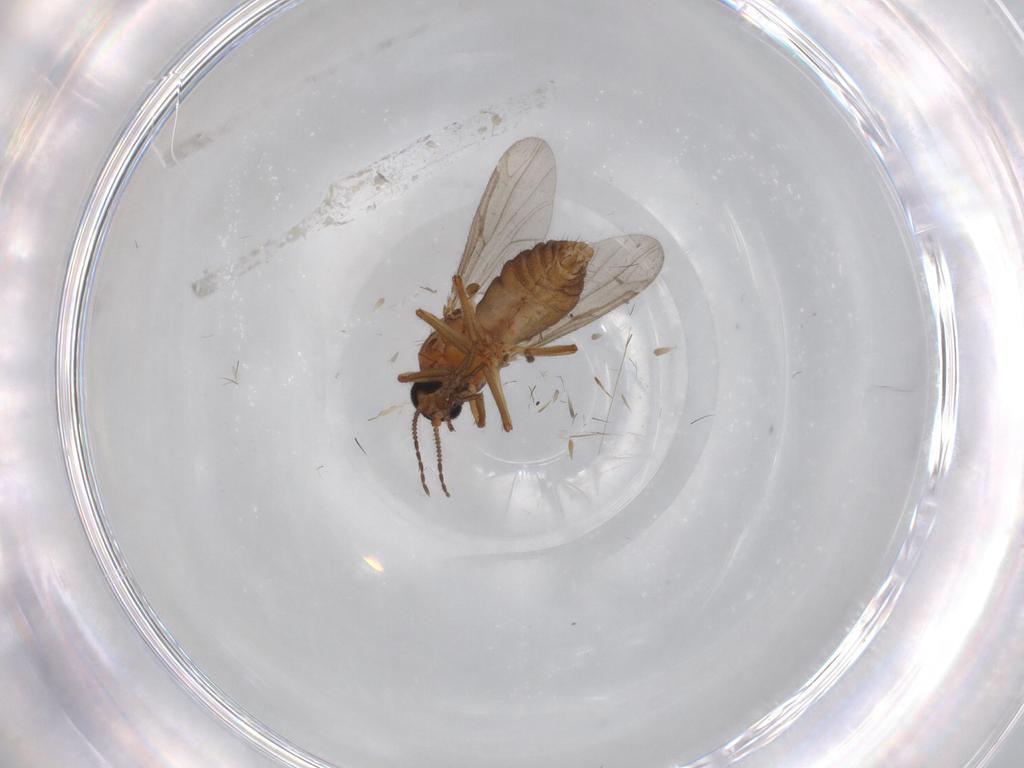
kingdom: Animalia
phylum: Arthropoda
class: Insecta
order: Diptera
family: Ceratopogonidae
